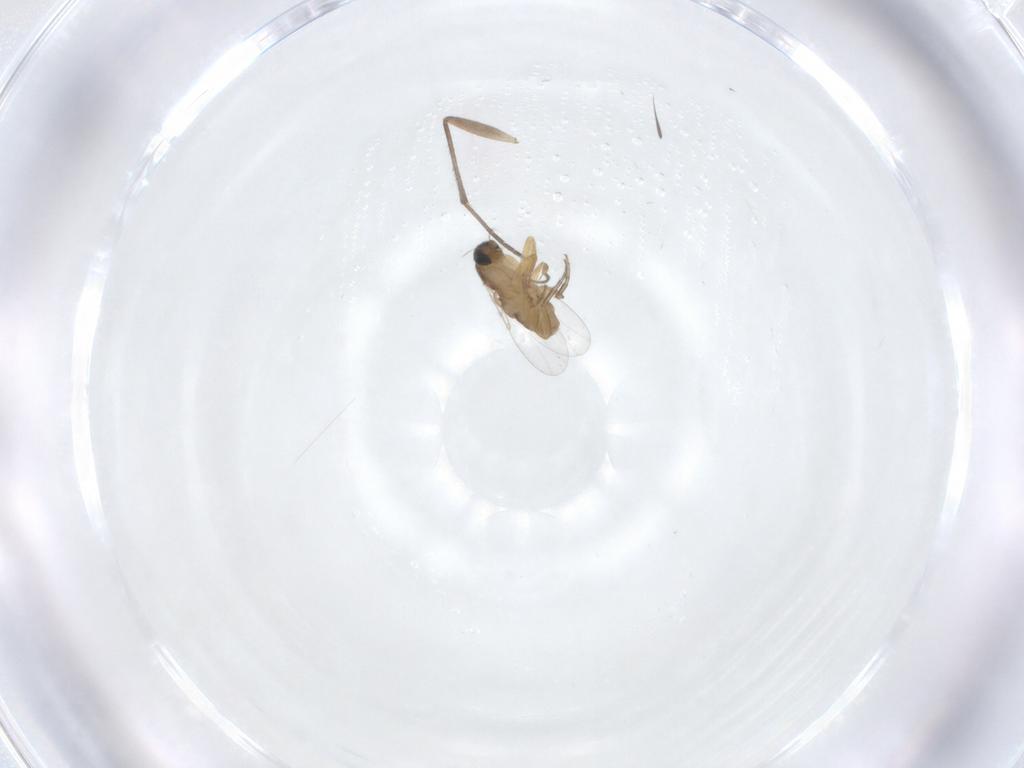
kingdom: Animalia
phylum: Arthropoda
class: Insecta
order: Diptera
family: Sciaridae
